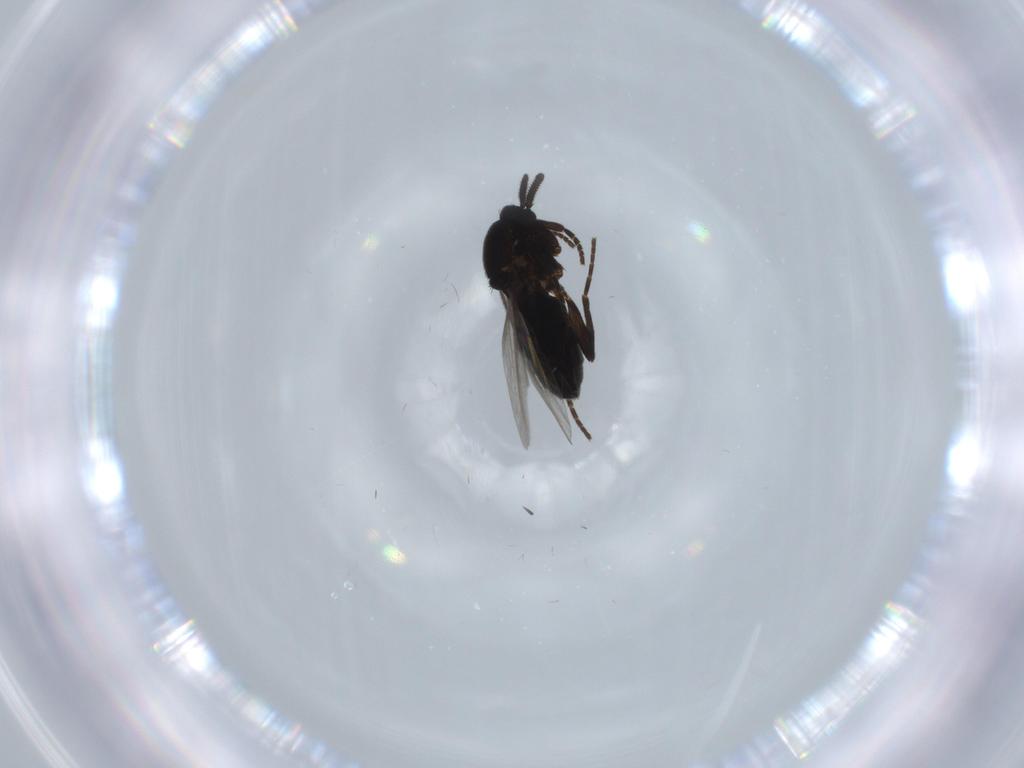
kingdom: Animalia
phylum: Arthropoda
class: Insecta
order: Diptera
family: Scatopsidae
